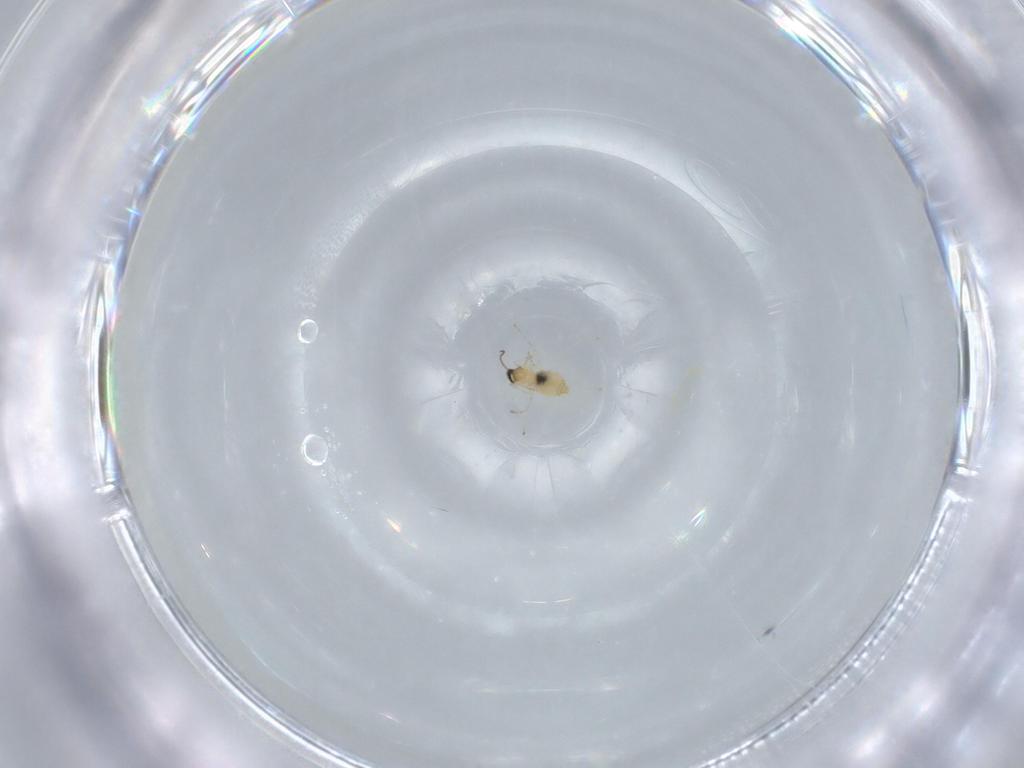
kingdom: Animalia
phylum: Arthropoda
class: Insecta
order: Diptera
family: Cecidomyiidae
